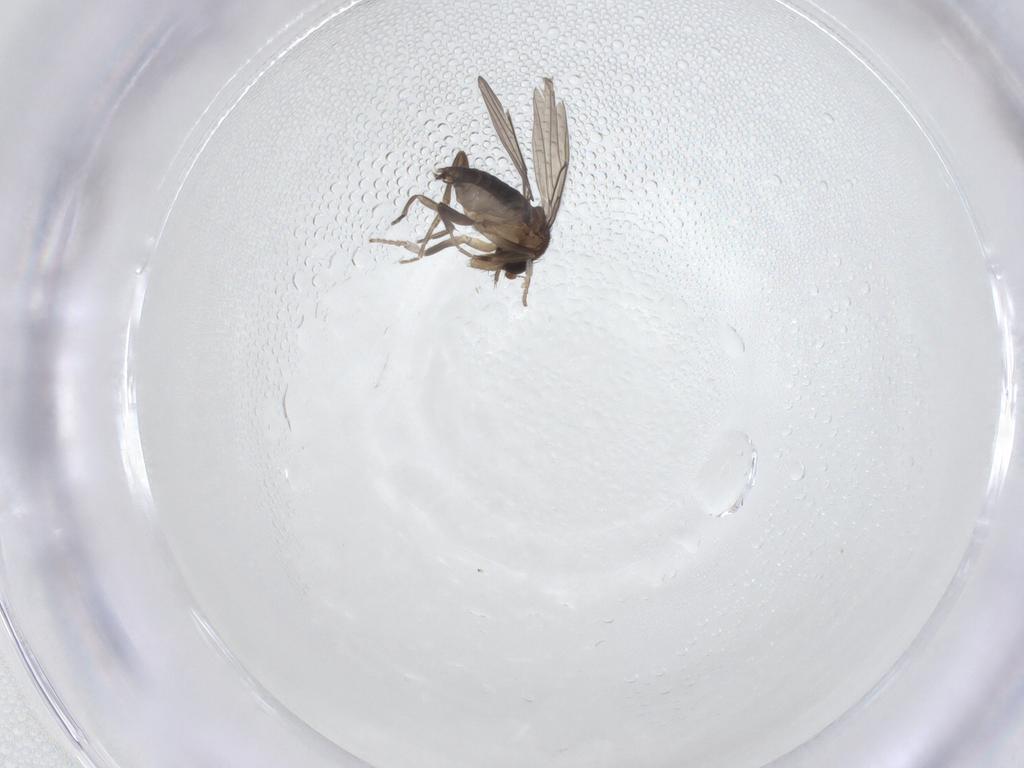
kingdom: Animalia
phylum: Arthropoda
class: Insecta
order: Diptera
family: Phoridae
